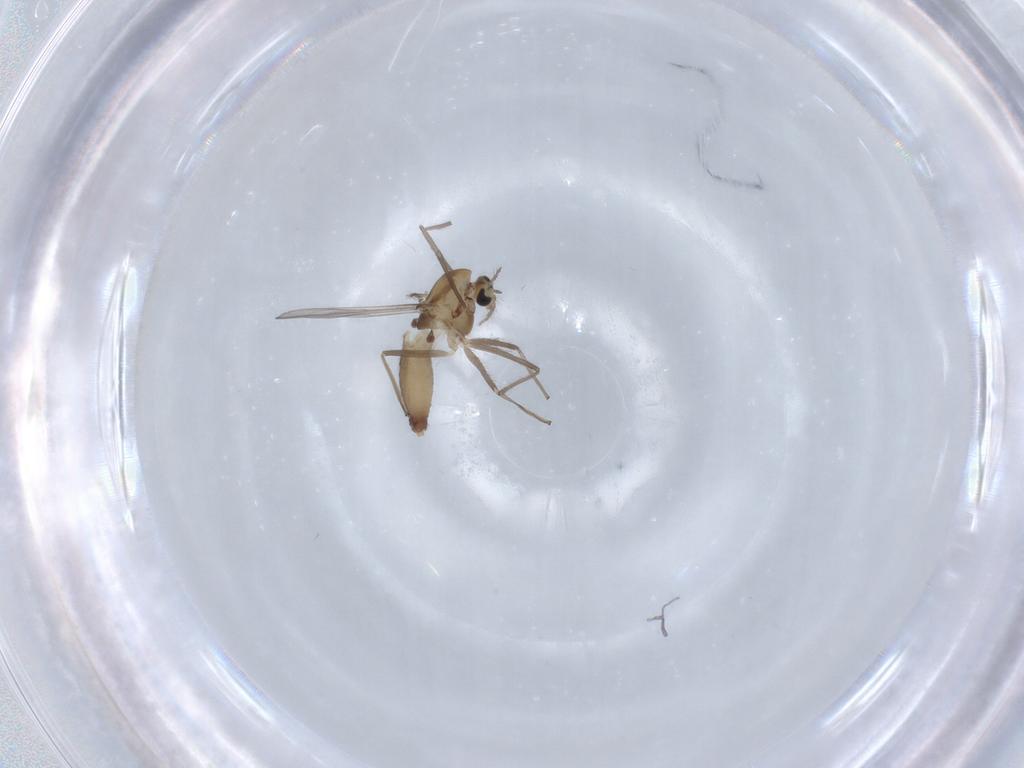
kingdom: Animalia
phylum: Arthropoda
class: Insecta
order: Diptera
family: Chironomidae
